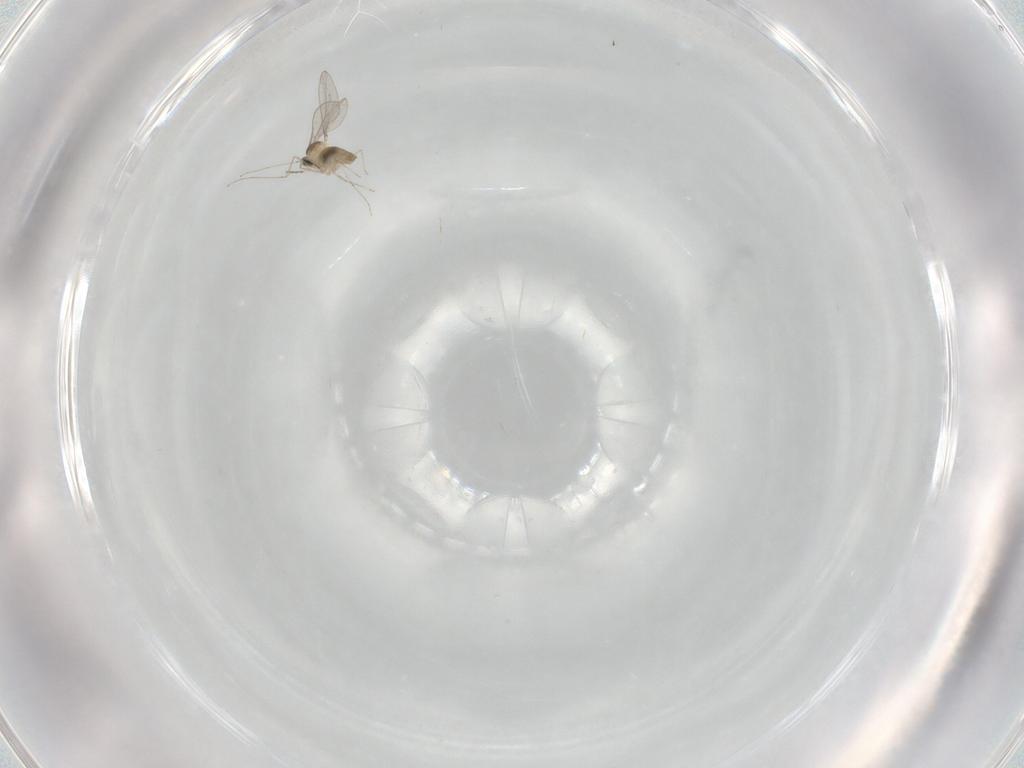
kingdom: Animalia
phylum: Arthropoda
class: Insecta
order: Diptera
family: Cecidomyiidae
